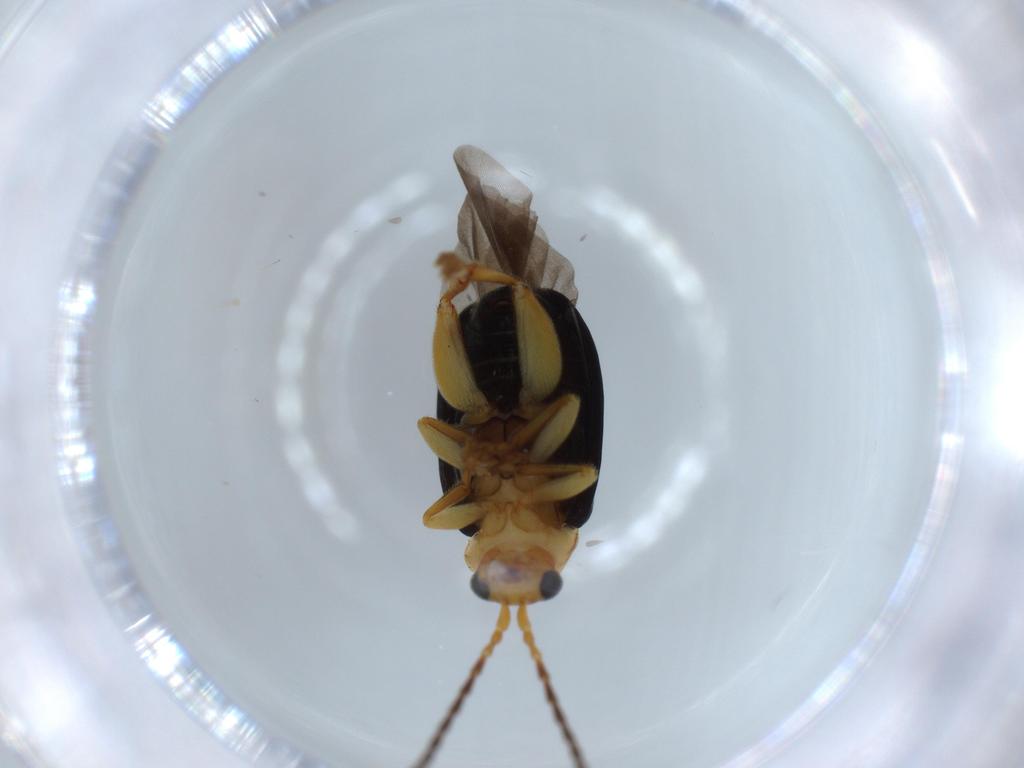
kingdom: Animalia
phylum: Arthropoda
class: Insecta
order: Coleoptera
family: Chrysomelidae
